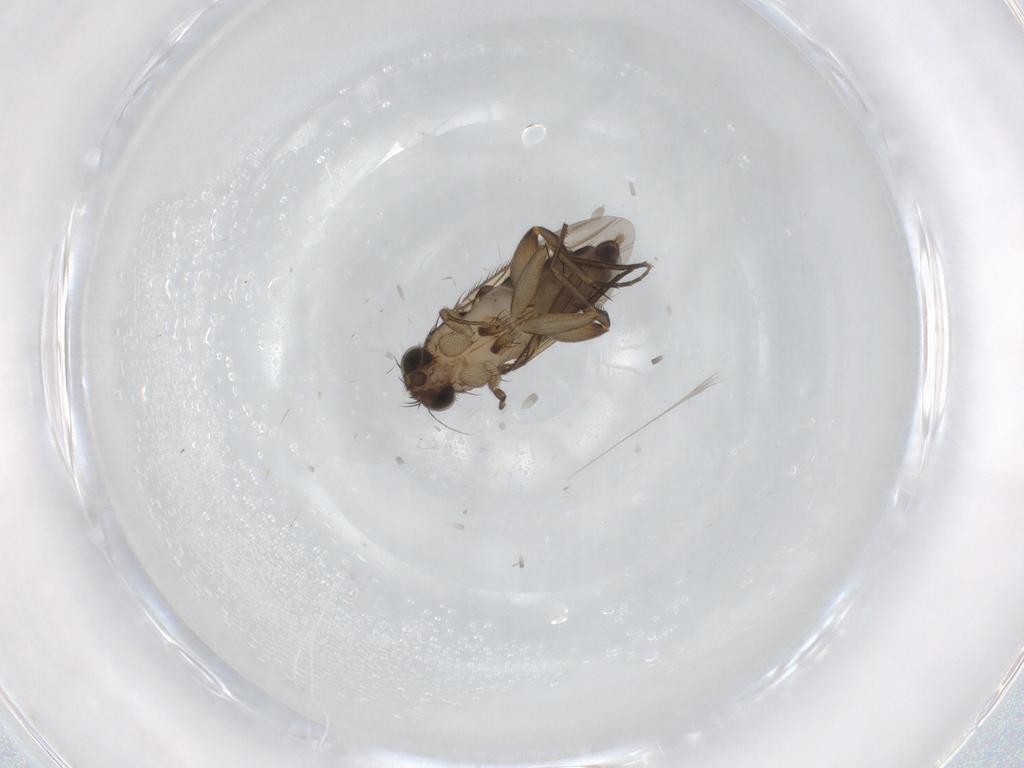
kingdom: Animalia
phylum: Arthropoda
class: Insecta
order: Diptera
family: Phoridae
